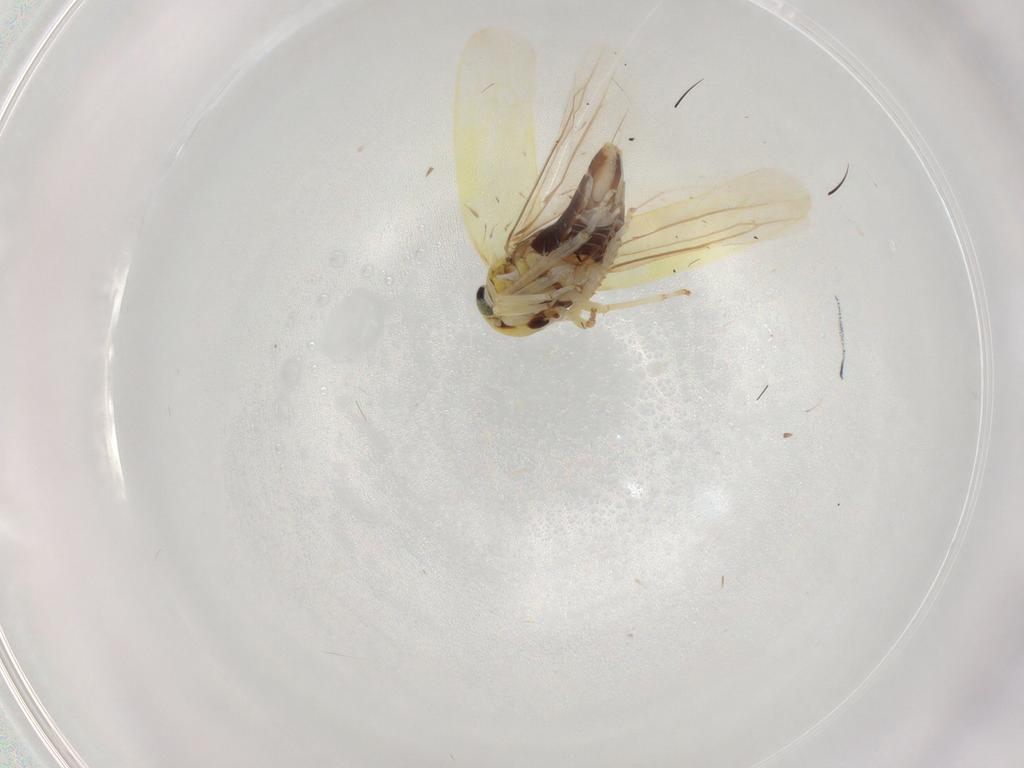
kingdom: Animalia
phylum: Arthropoda
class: Insecta
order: Hemiptera
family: Cicadellidae
